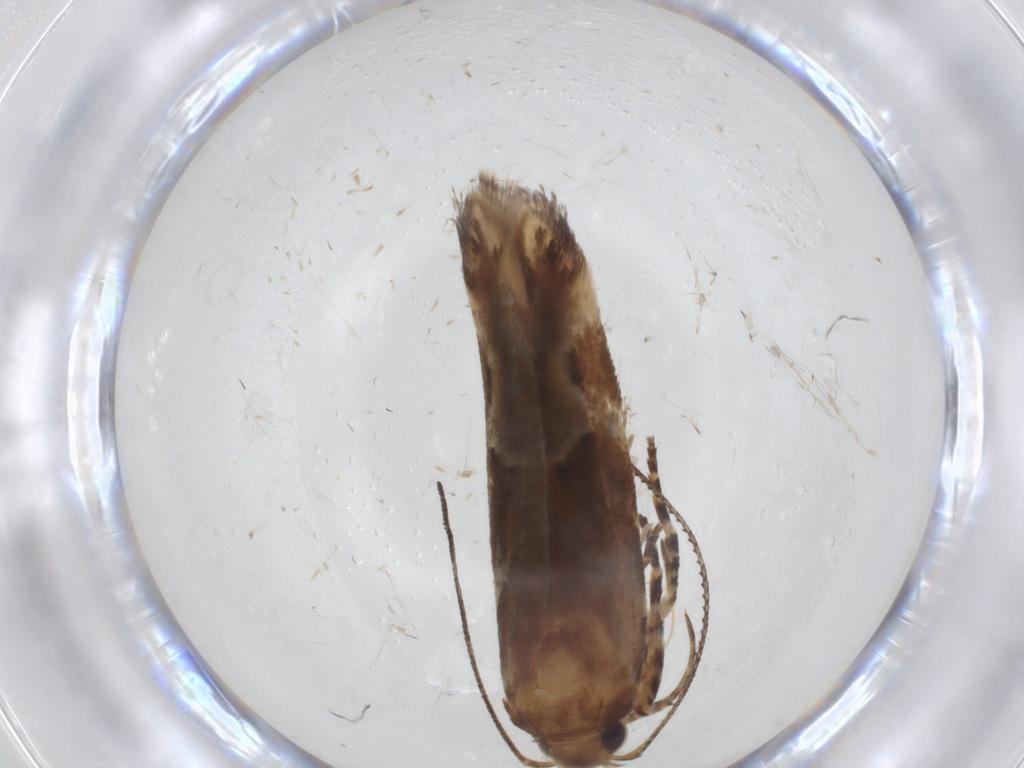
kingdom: Animalia
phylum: Arthropoda
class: Insecta
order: Lepidoptera
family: Gelechiidae
